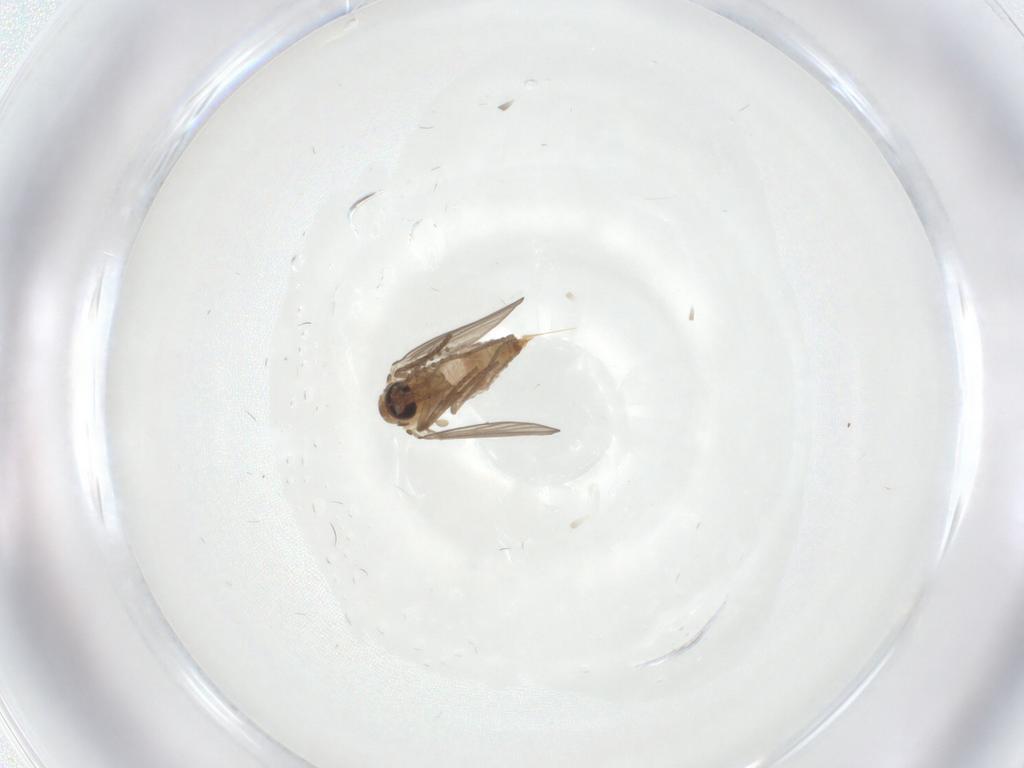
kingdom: Animalia
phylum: Arthropoda
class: Insecta
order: Diptera
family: Psychodidae
